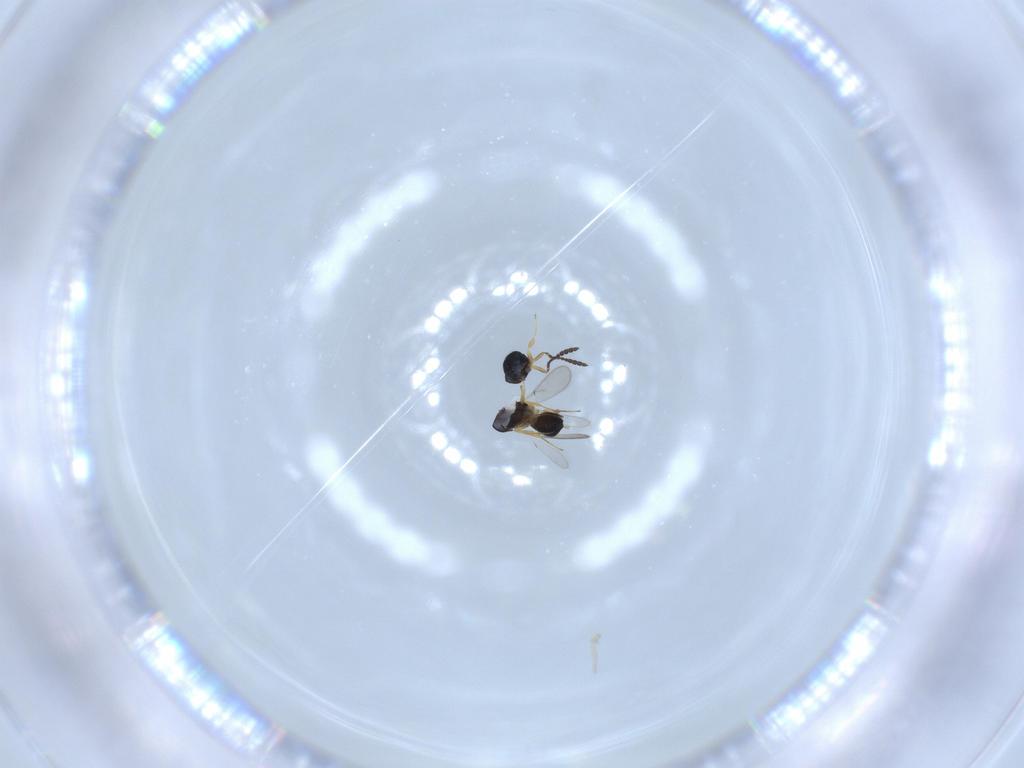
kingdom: Animalia
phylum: Arthropoda
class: Insecta
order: Hymenoptera
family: Scelionidae
